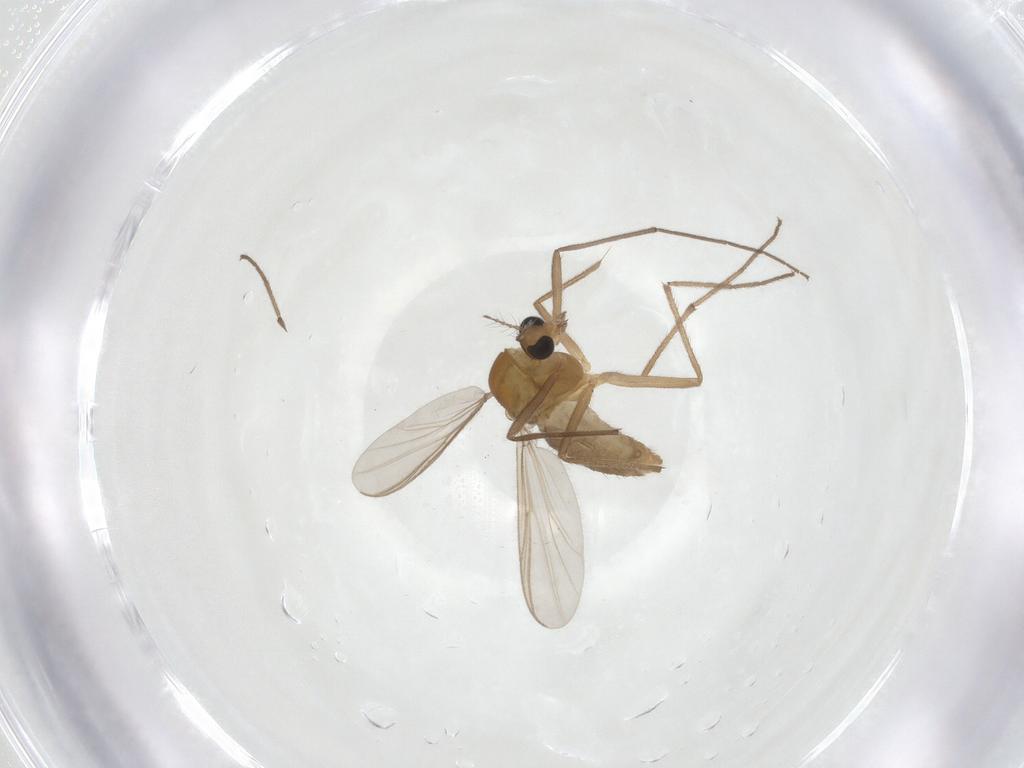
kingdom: Animalia
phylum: Arthropoda
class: Insecta
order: Diptera
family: Chironomidae
